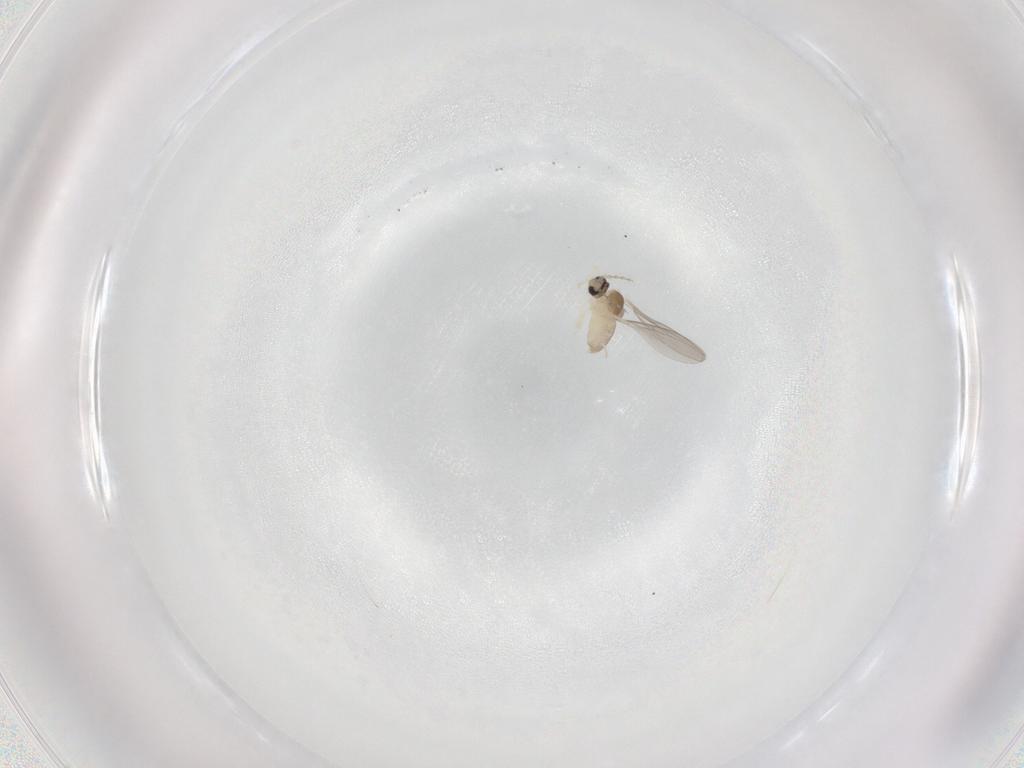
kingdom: Animalia
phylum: Arthropoda
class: Insecta
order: Diptera
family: Cecidomyiidae
